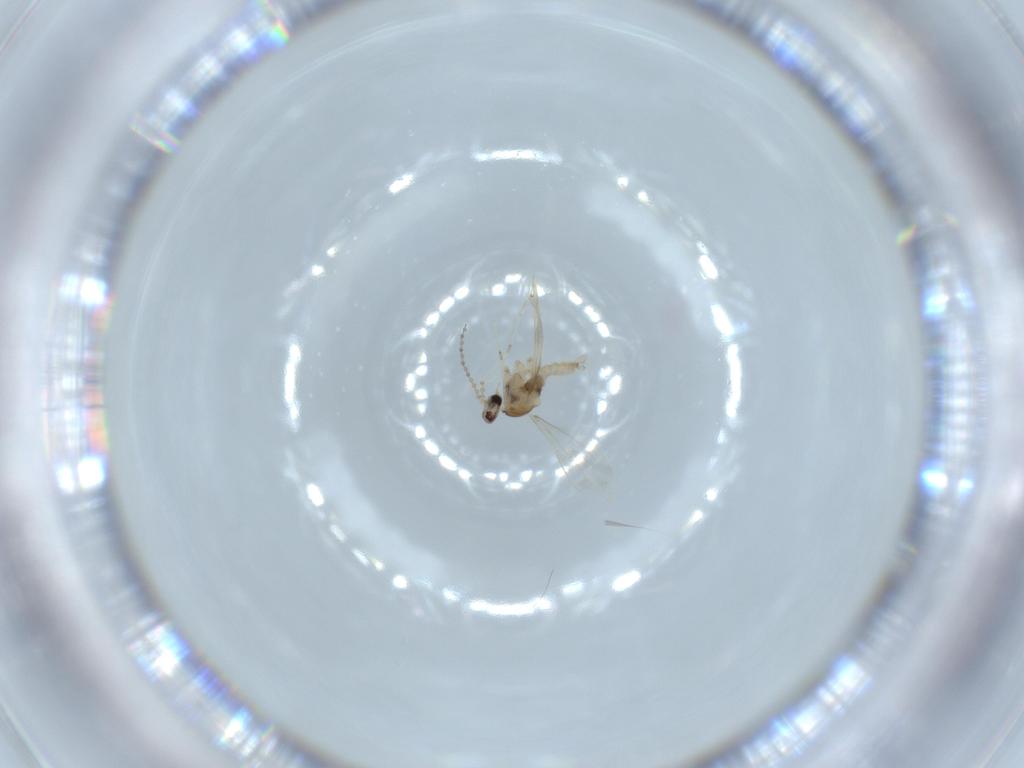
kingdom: Animalia
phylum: Arthropoda
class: Insecta
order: Diptera
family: Cecidomyiidae
